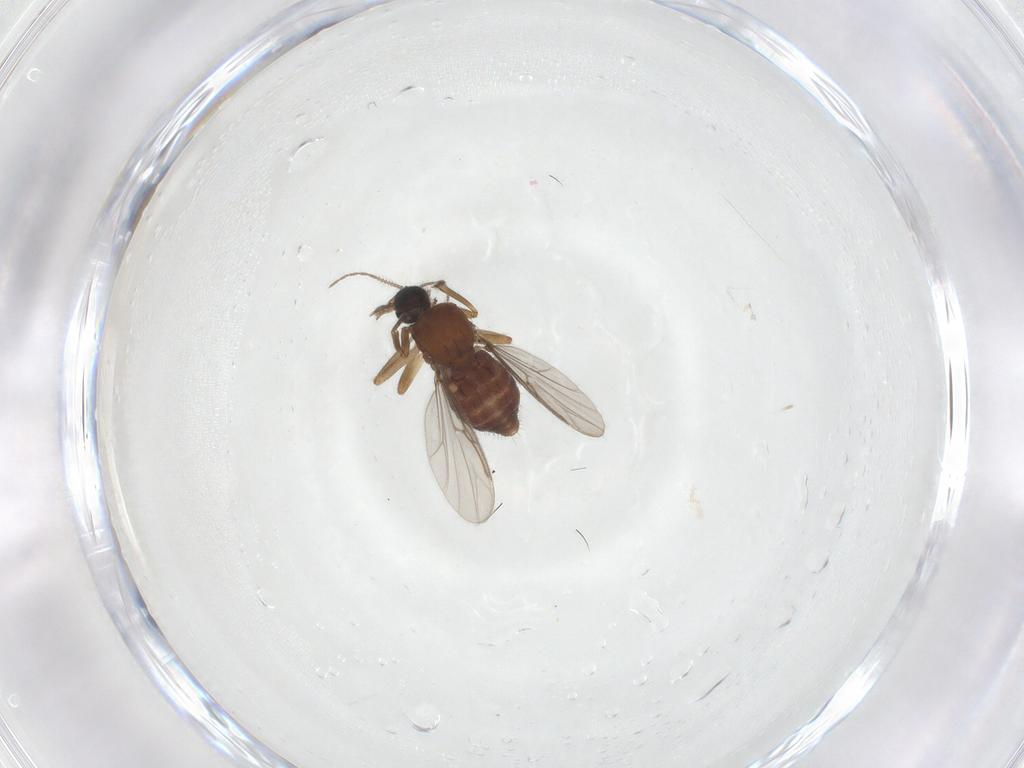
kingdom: Animalia
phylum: Arthropoda
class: Insecta
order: Diptera
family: Ceratopogonidae
